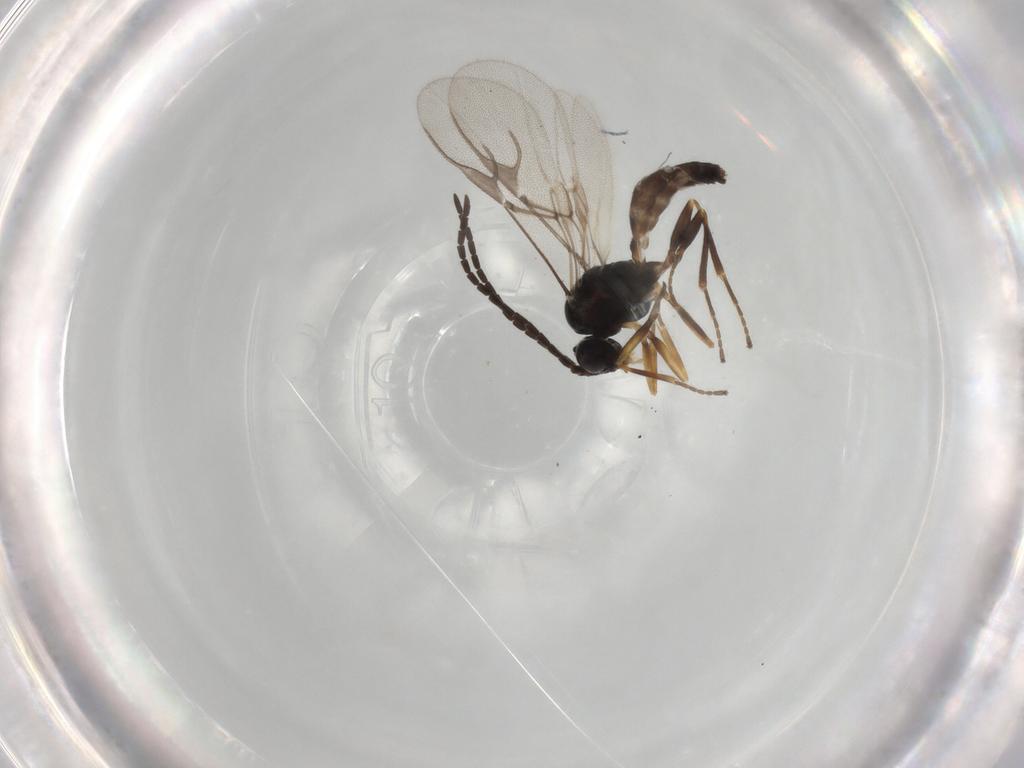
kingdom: Animalia
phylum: Arthropoda
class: Insecta
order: Hymenoptera
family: Braconidae
